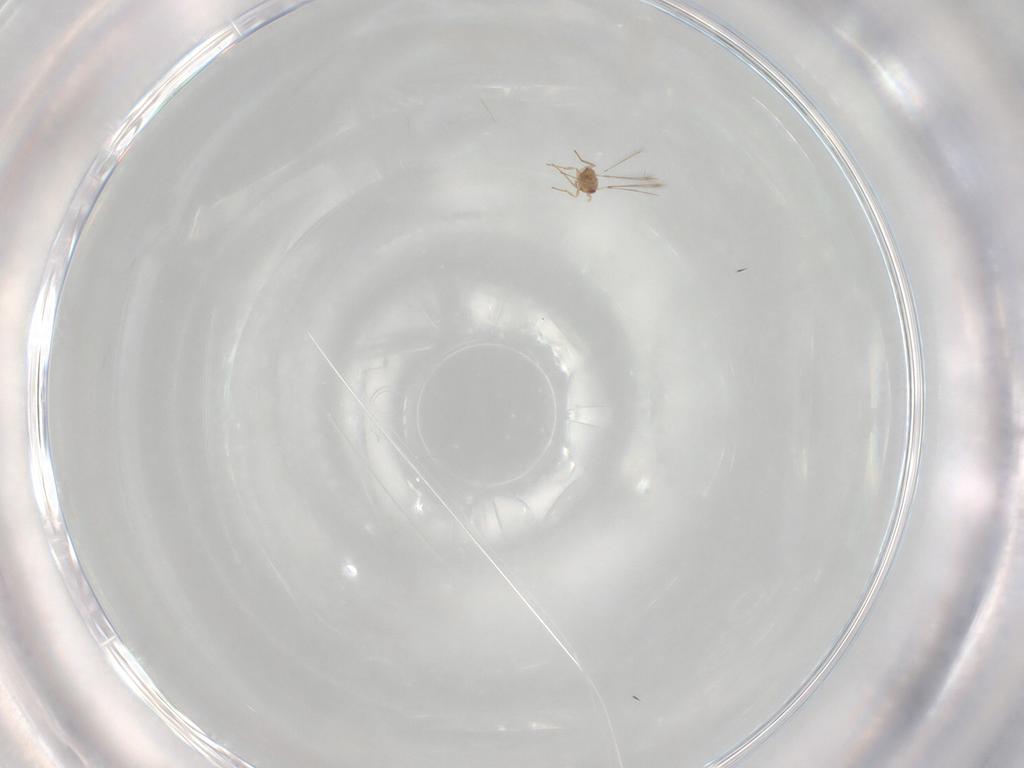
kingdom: Animalia
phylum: Arthropoda
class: Insecta
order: Hymenoptera
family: Mymaridae
